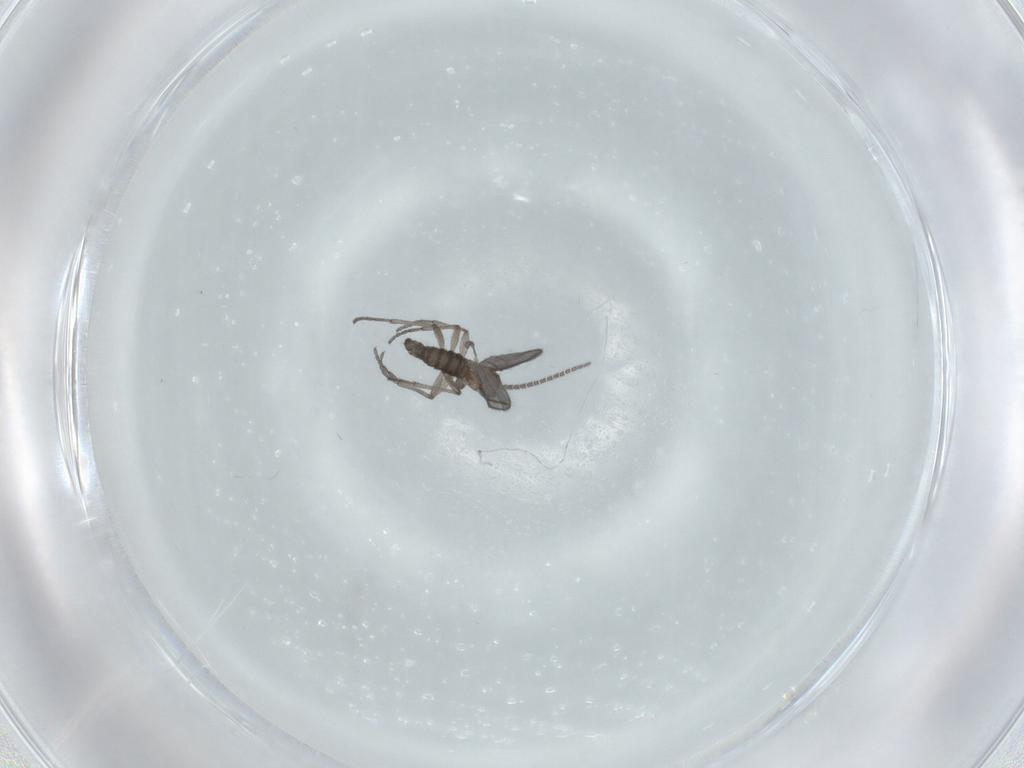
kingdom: Animalia
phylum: Arthropoda
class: Insecta
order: Diptera
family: Sciaridae
